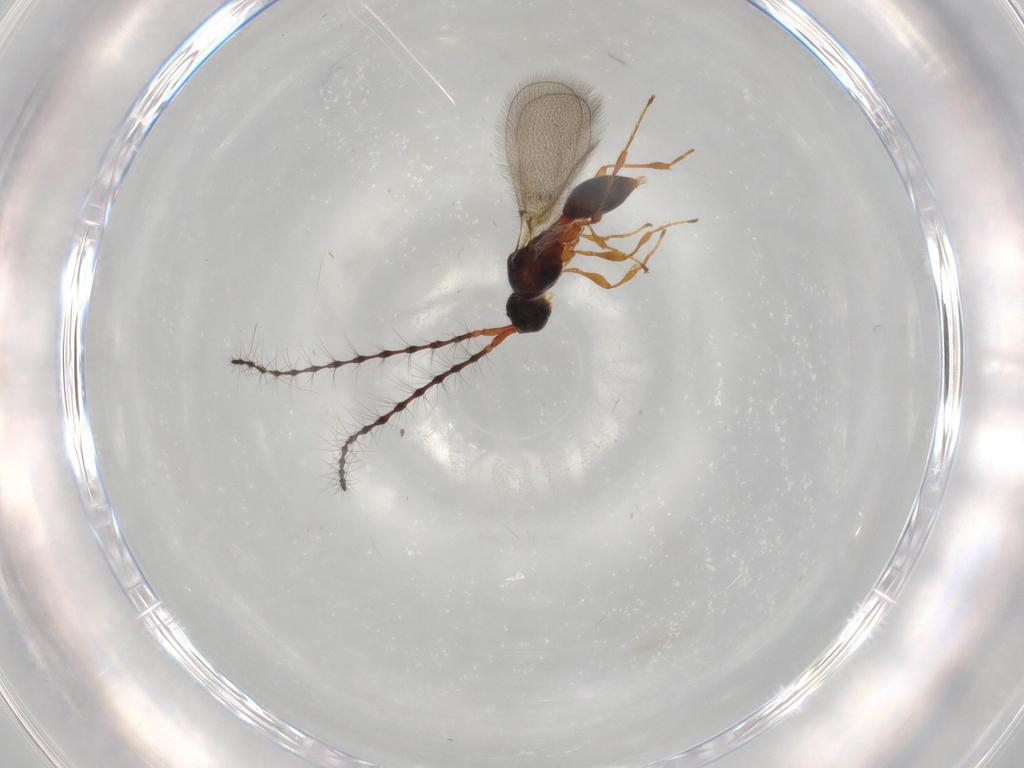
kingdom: Animalia
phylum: Arthropoda
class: Insecta
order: Hymenoptera
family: Diapriidae
